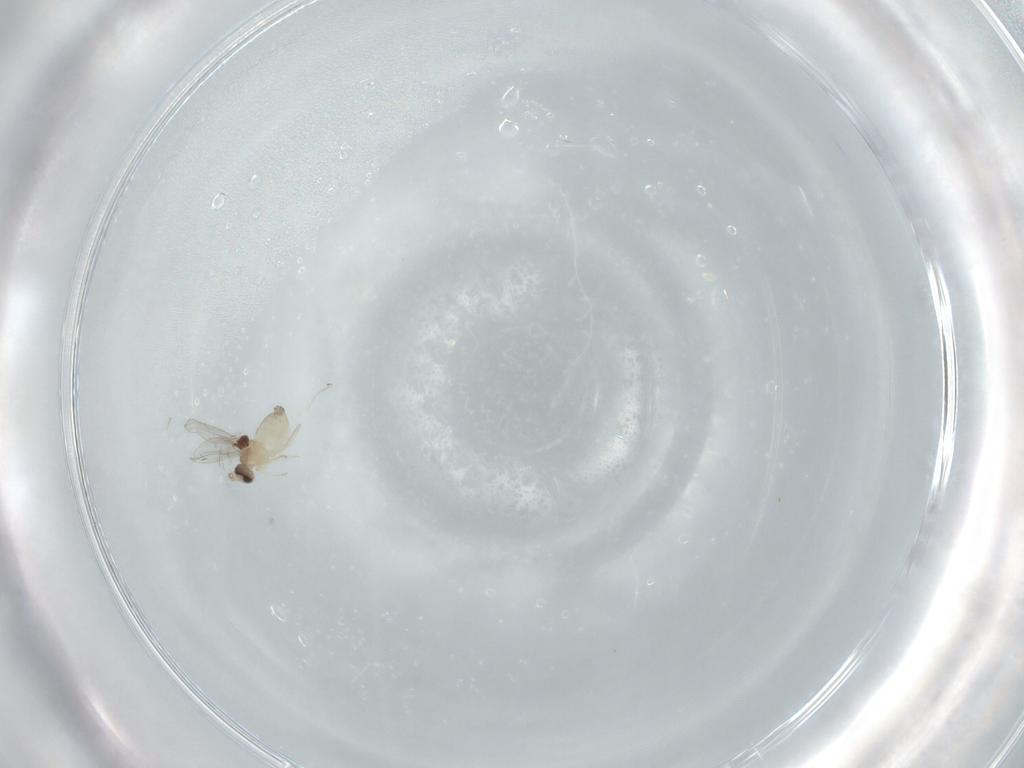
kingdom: Animalia
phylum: Arthropoda
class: Insecta
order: Diptera
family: Cecidomyiidae
